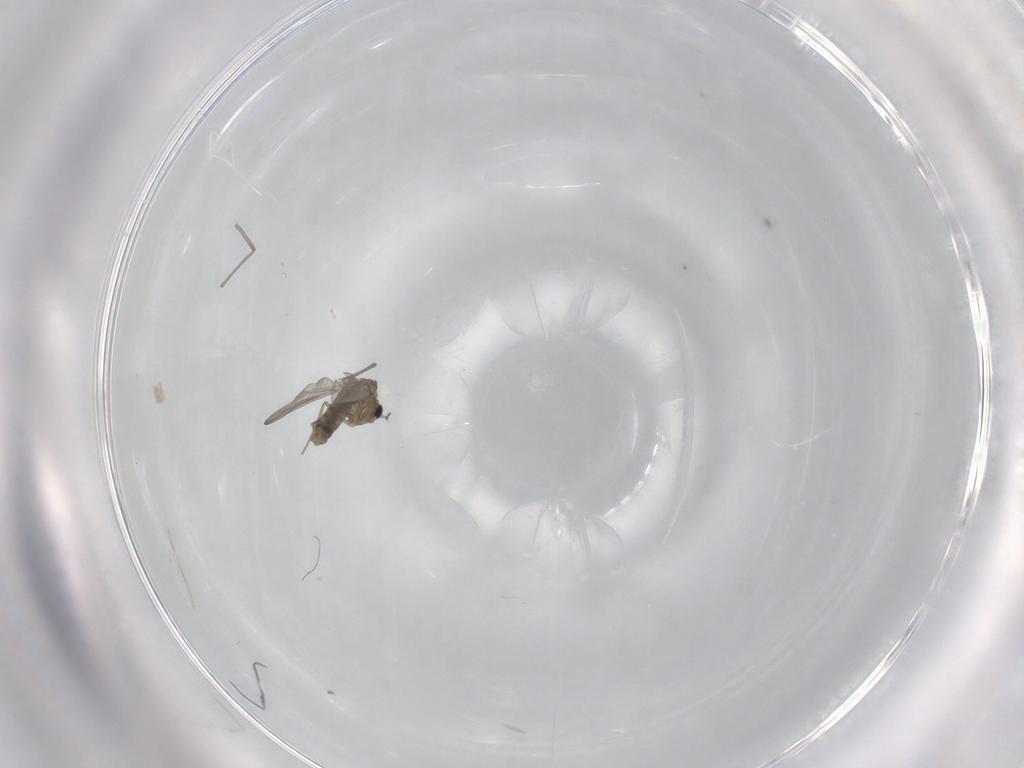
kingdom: Animalia
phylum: Arthropoda
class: Insecta
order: Diptera
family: Chironomidae
